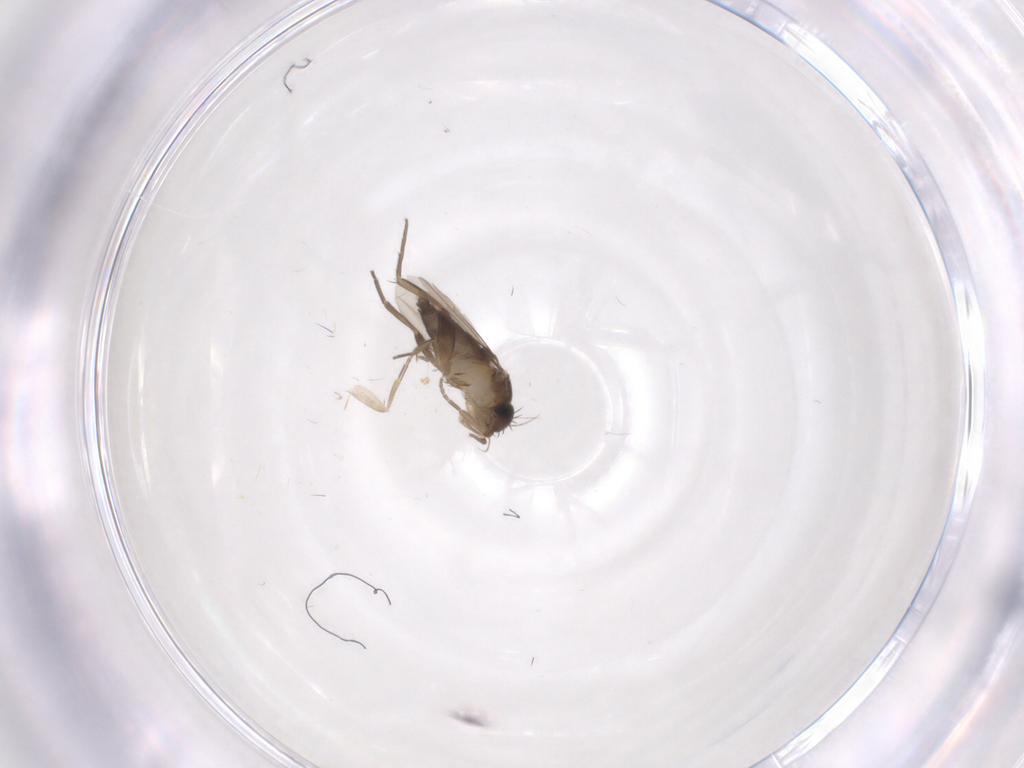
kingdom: Animalia
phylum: Arthropoda
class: Insecta
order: Diptera
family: Phoridae
